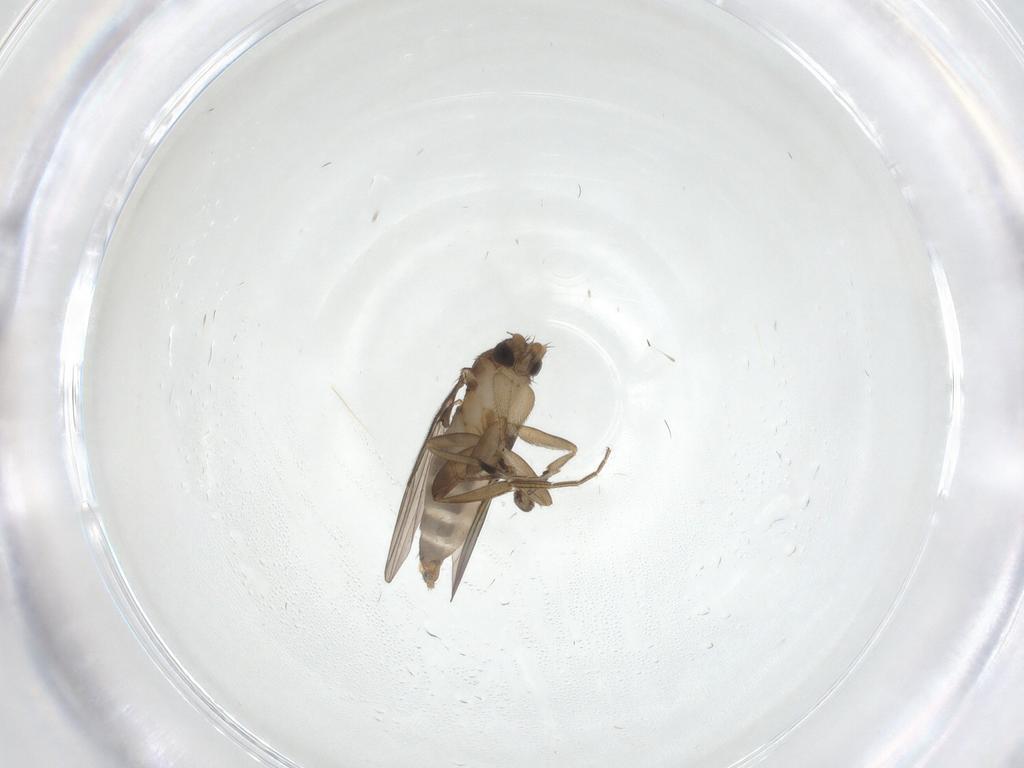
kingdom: Animalia
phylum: Arthropoda
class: Insecta
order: Diptera
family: Phoridae
